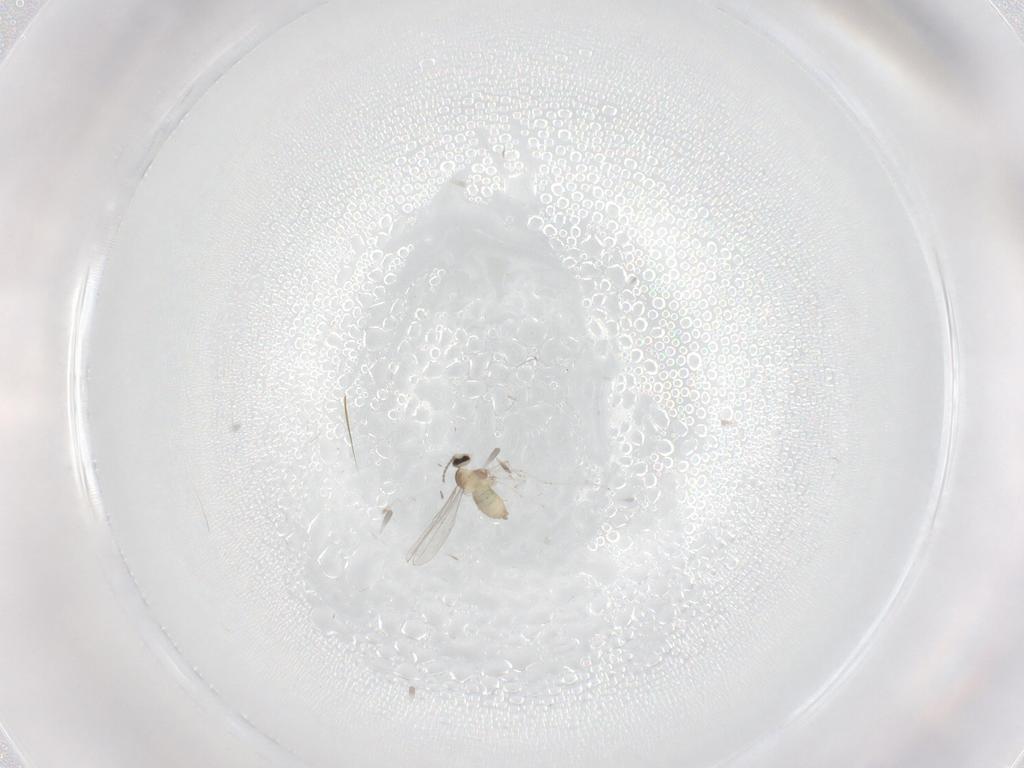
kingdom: Animalia
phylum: Arthropoda
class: Insecta
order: Diptera
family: Cecidomyiidae
